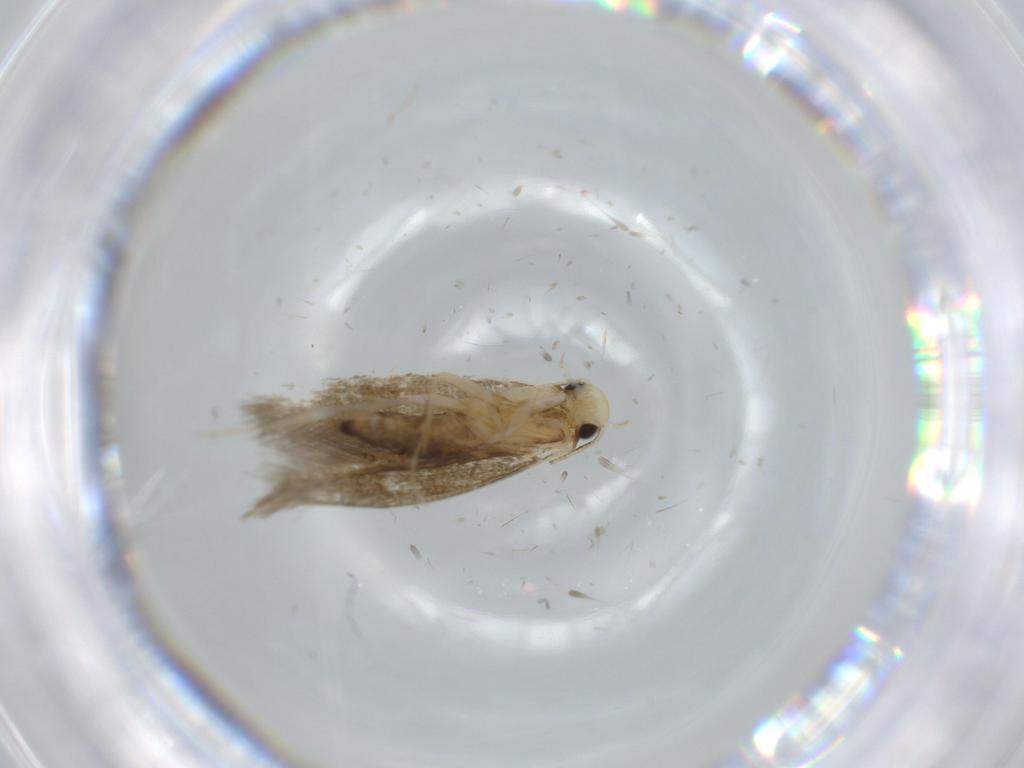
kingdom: Animalia
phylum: Arthropoda
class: Insecta
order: Lepidoptera
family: Tineidae
